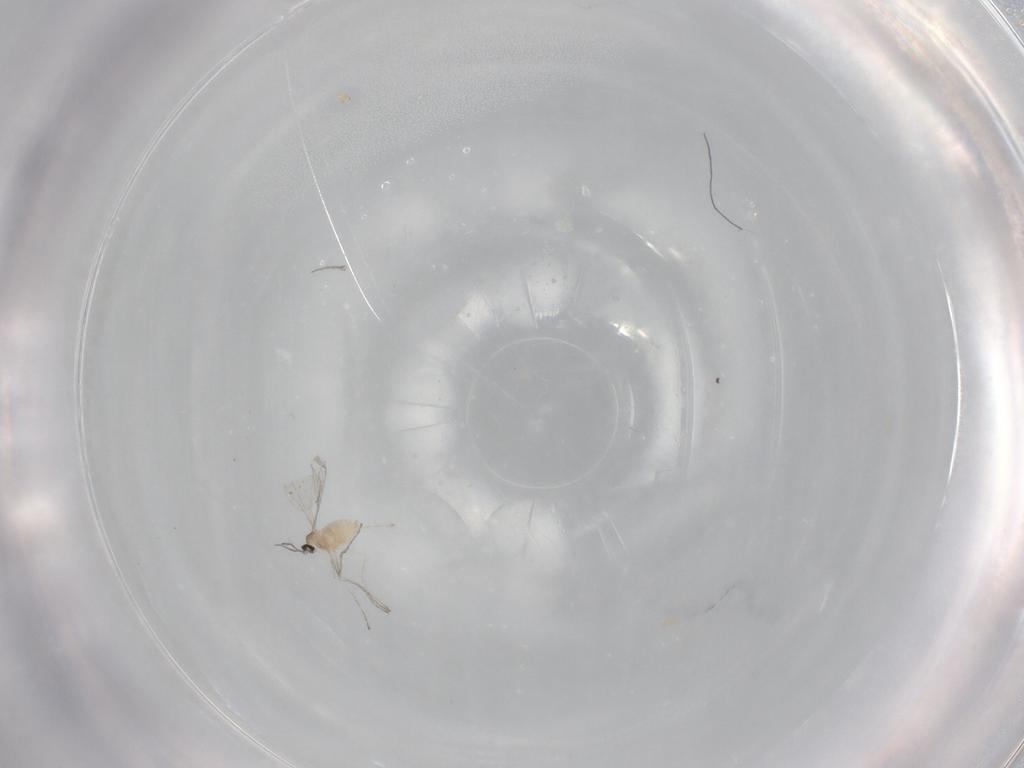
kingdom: Animalia
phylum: Arthropoda
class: Insecta
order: Diptera
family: Cecidomyiidae
